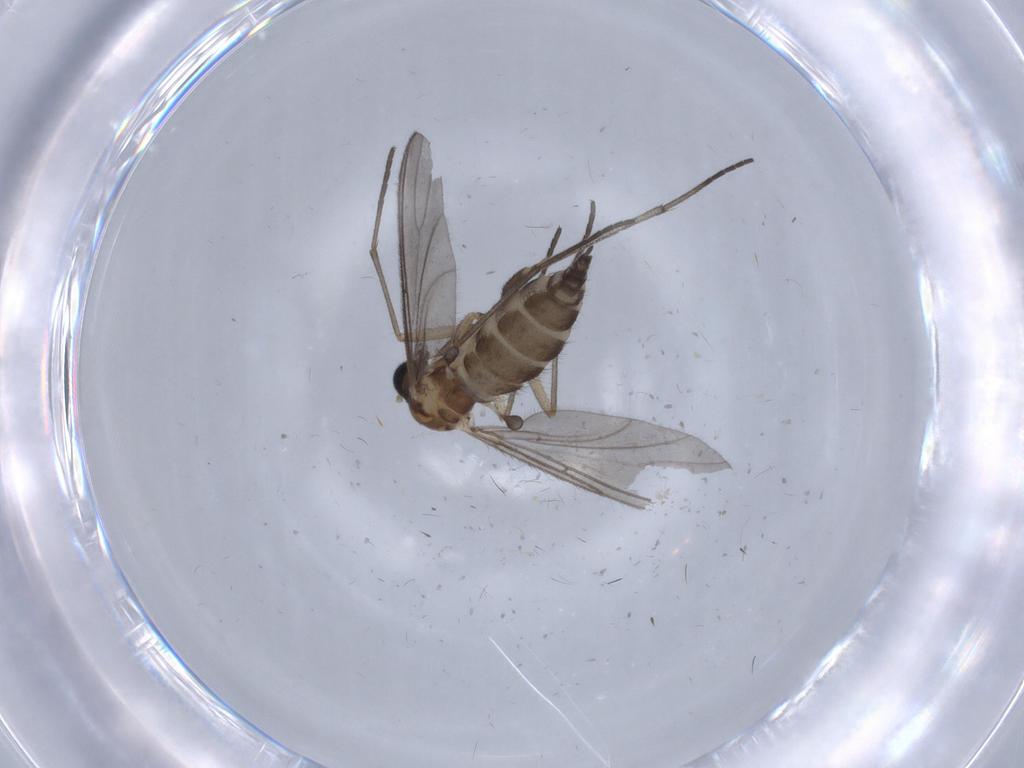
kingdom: Animalia
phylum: Arthropoda
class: Insecta
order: Diptera
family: Sciaridae
